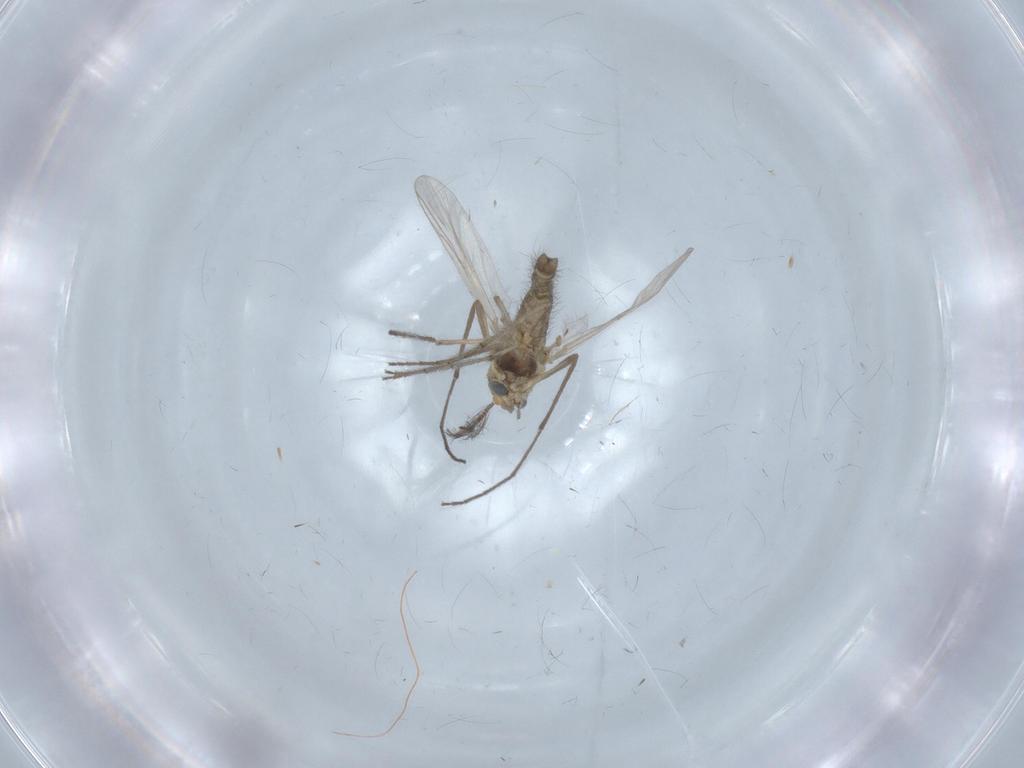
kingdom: Animalia
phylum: Arthropoda
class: Insecta
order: Diptera
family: Chironomidae
